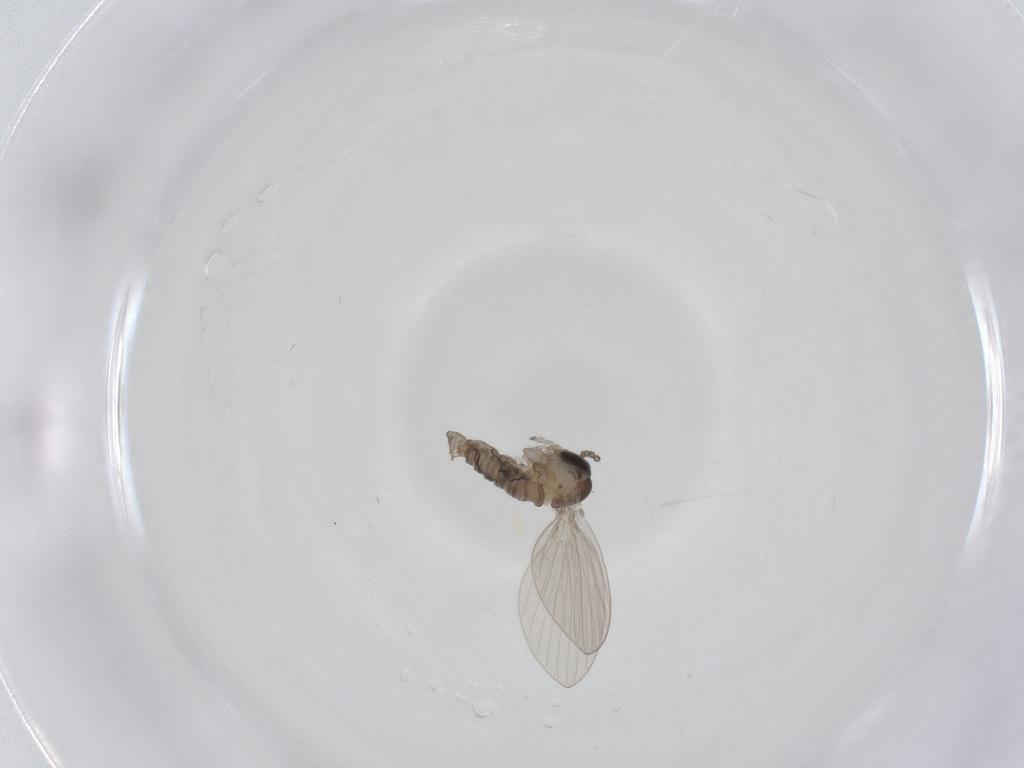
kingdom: Animalia
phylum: Arthropoda
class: Insecta
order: Diptera
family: Psychodidae
